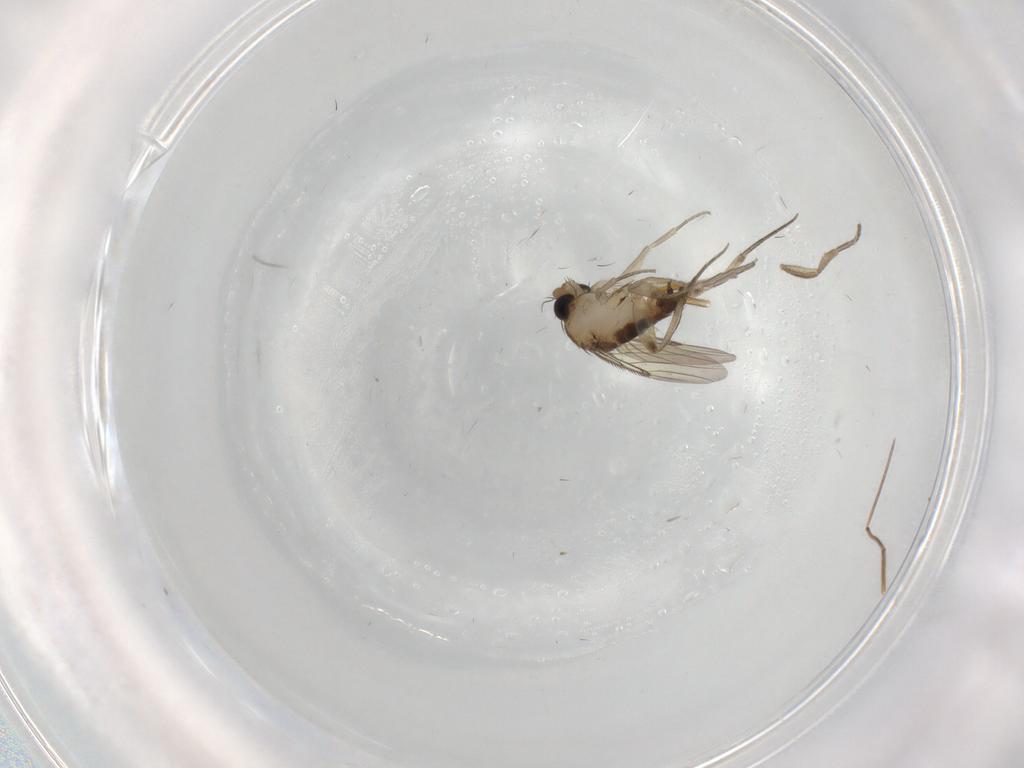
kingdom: Animalia
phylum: Arthropoda
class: Insecta
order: Diptera
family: Phoridae
